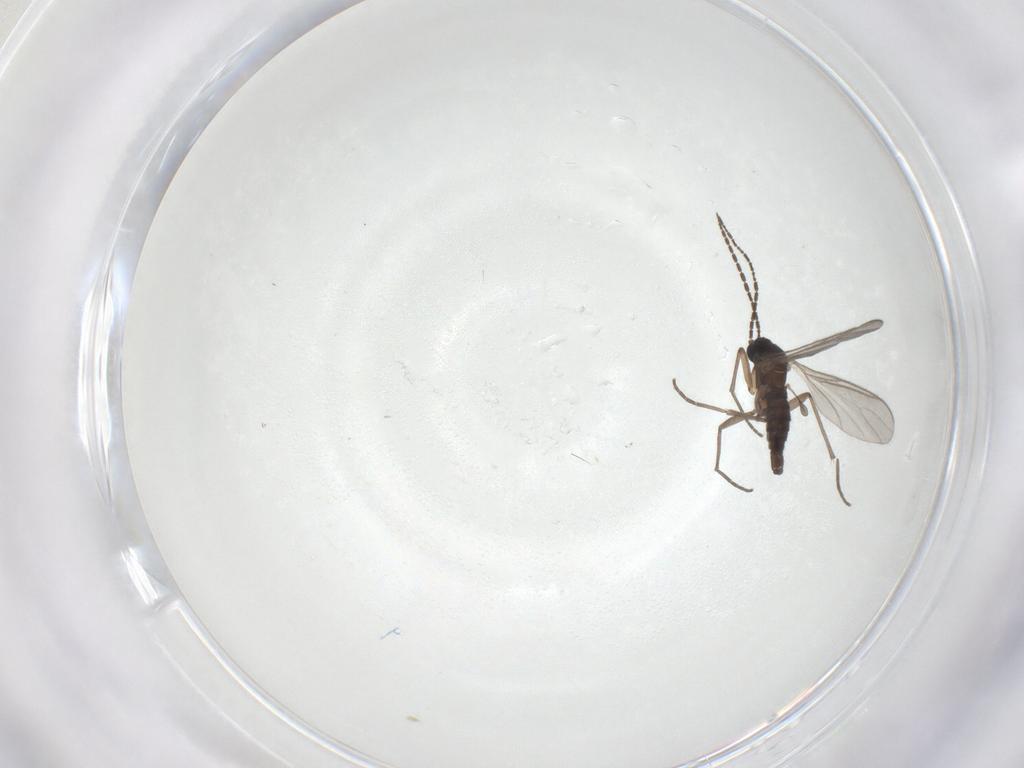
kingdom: Animalia
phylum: Arthropoda
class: Insecta
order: Diptera
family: Sciaridae
